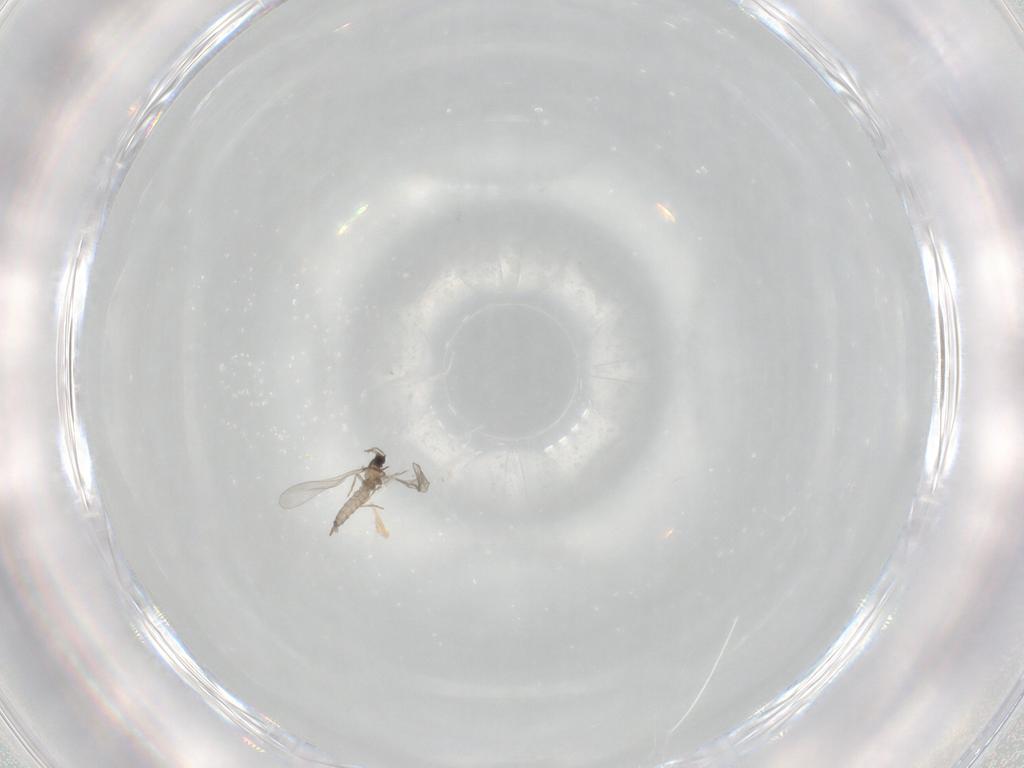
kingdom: Animalia
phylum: Arthropoda
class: Insecta
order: Diptera
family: Cecidomyiidae
